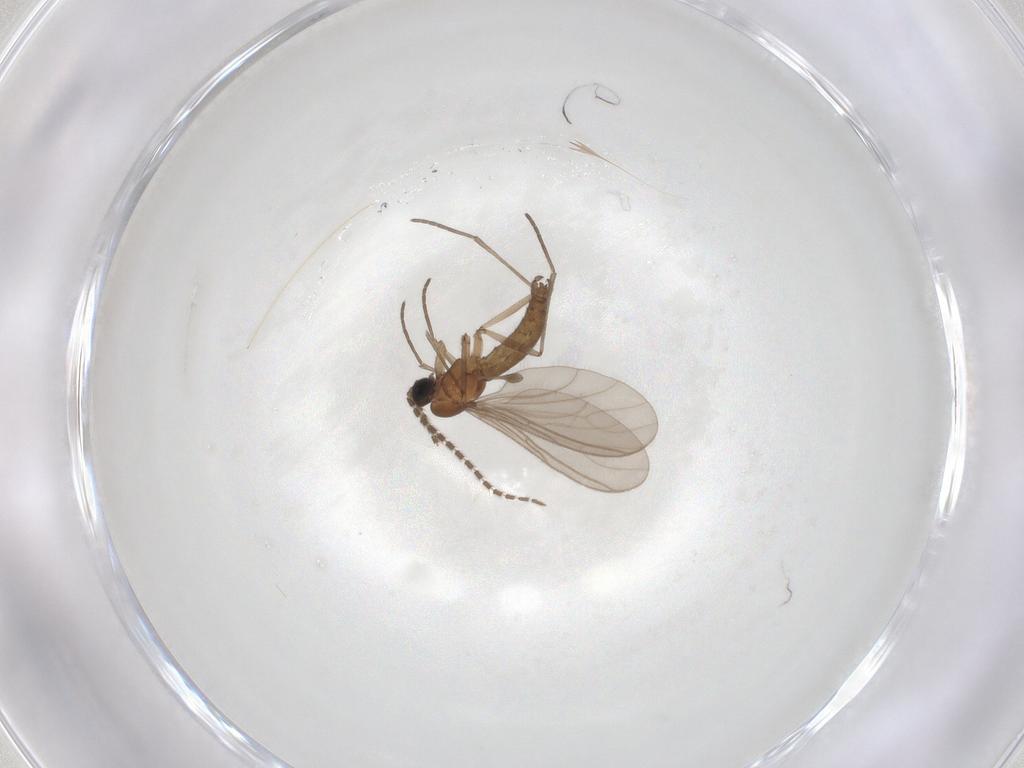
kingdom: Animalia
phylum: Arthropoda
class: Insecta
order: Diptera
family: Sciaridae
